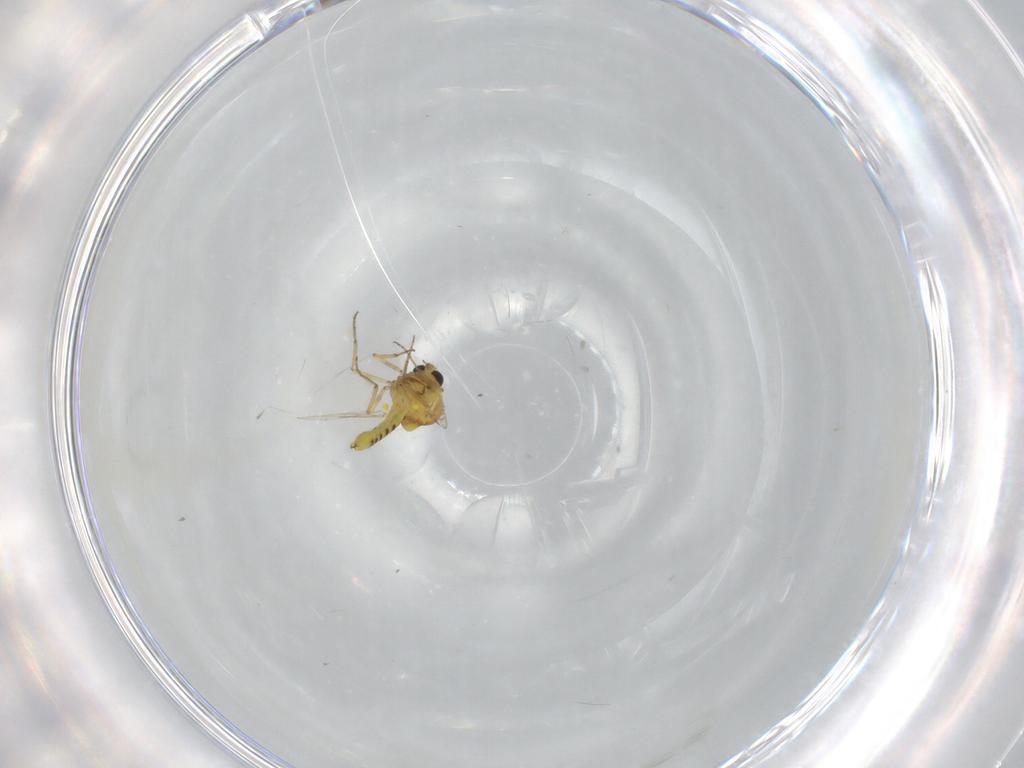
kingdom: Animalia
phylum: Arthropoda
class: Insecta
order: Diptera
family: Ceratopogonidae
